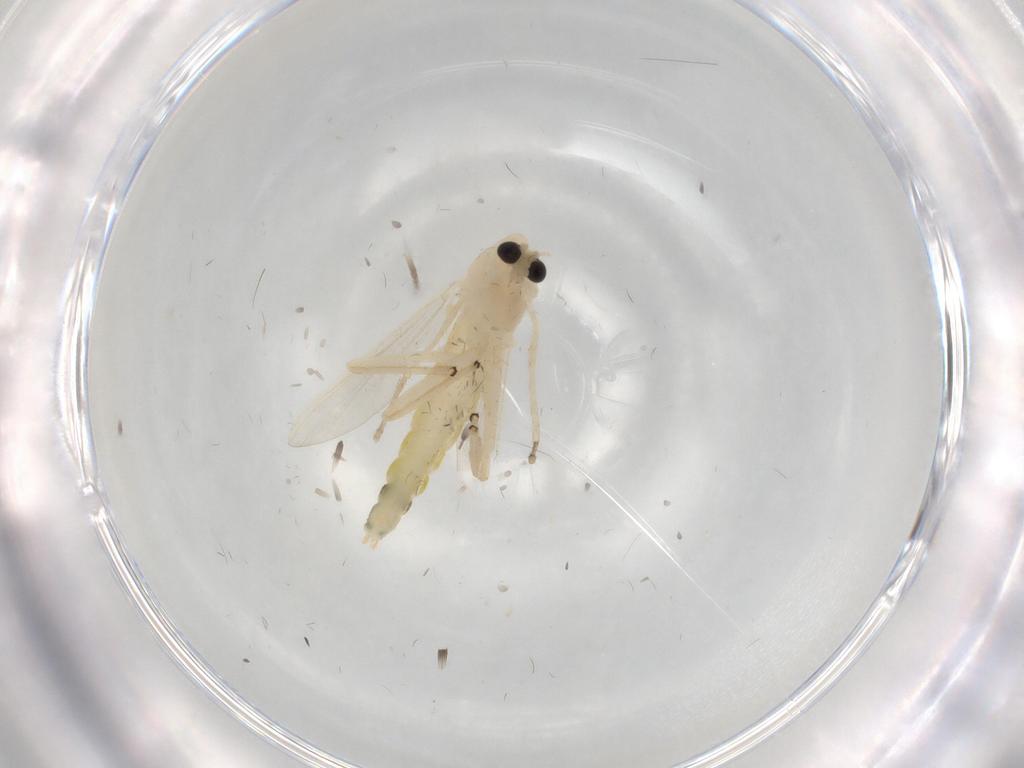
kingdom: Animalia
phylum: Arthropoda
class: Insecta
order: Diptera
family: Chironomidae
